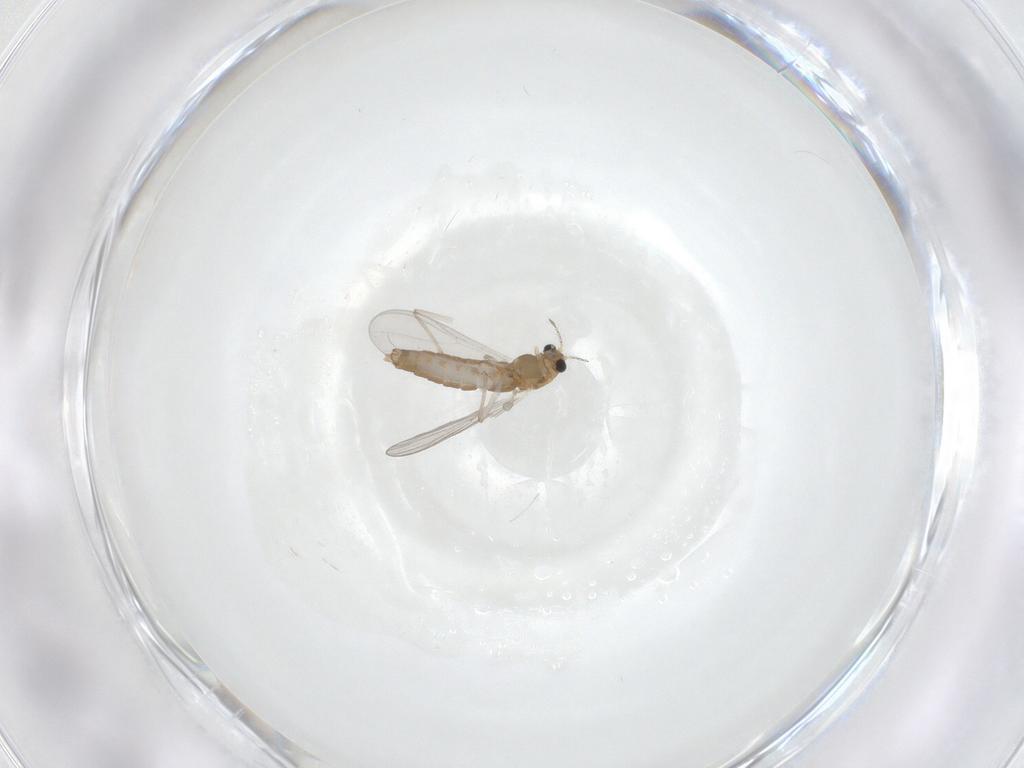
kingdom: Animalia
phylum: Arthropoda
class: Insecta
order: Diptera
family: Chironomidae
